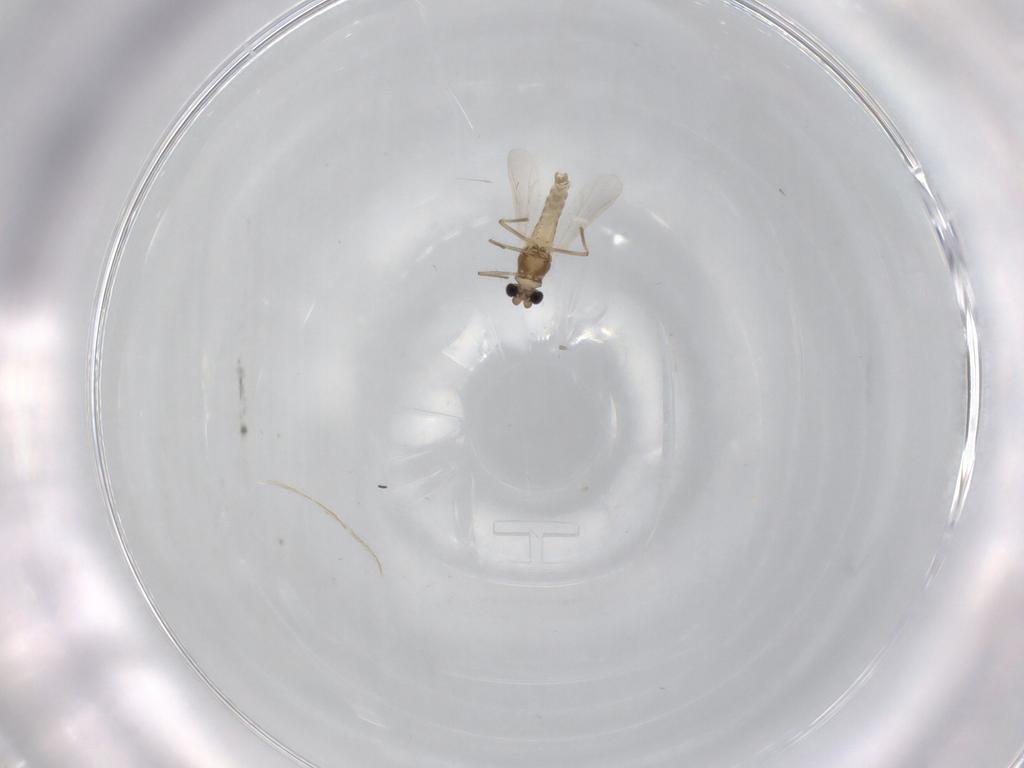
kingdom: Animalia
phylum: Arthropoda
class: Insecta
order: Diptera
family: Chironomidae
